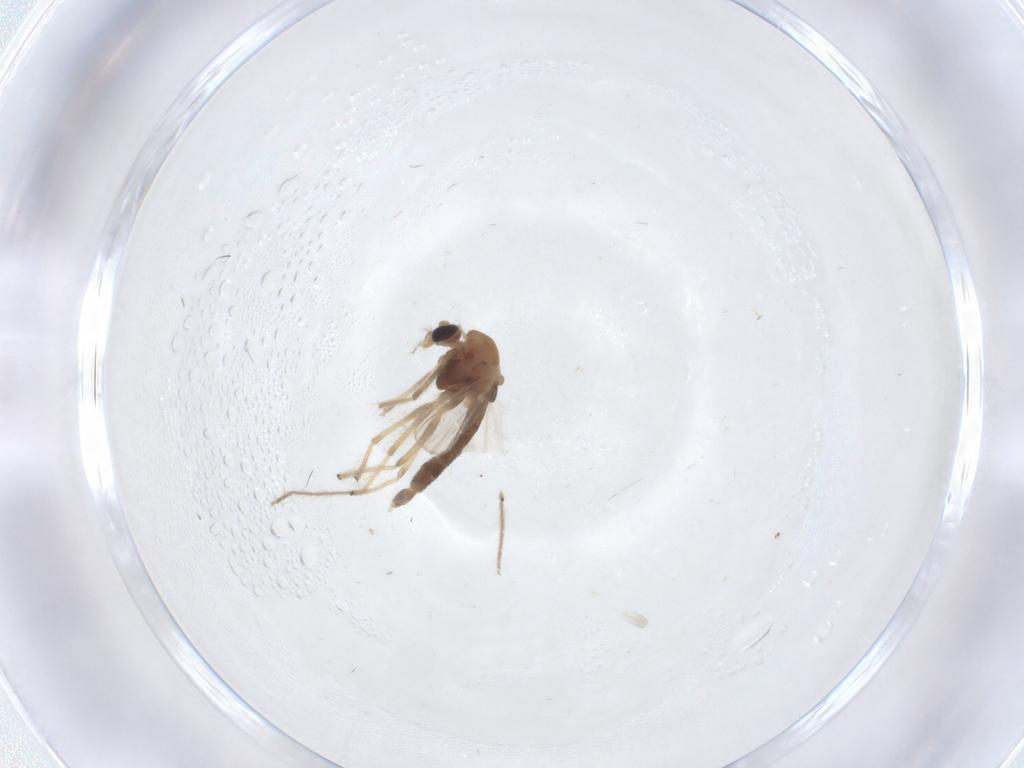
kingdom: Animalia
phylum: Arthropoda
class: Insecta
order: Diptera
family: Chironomidae
